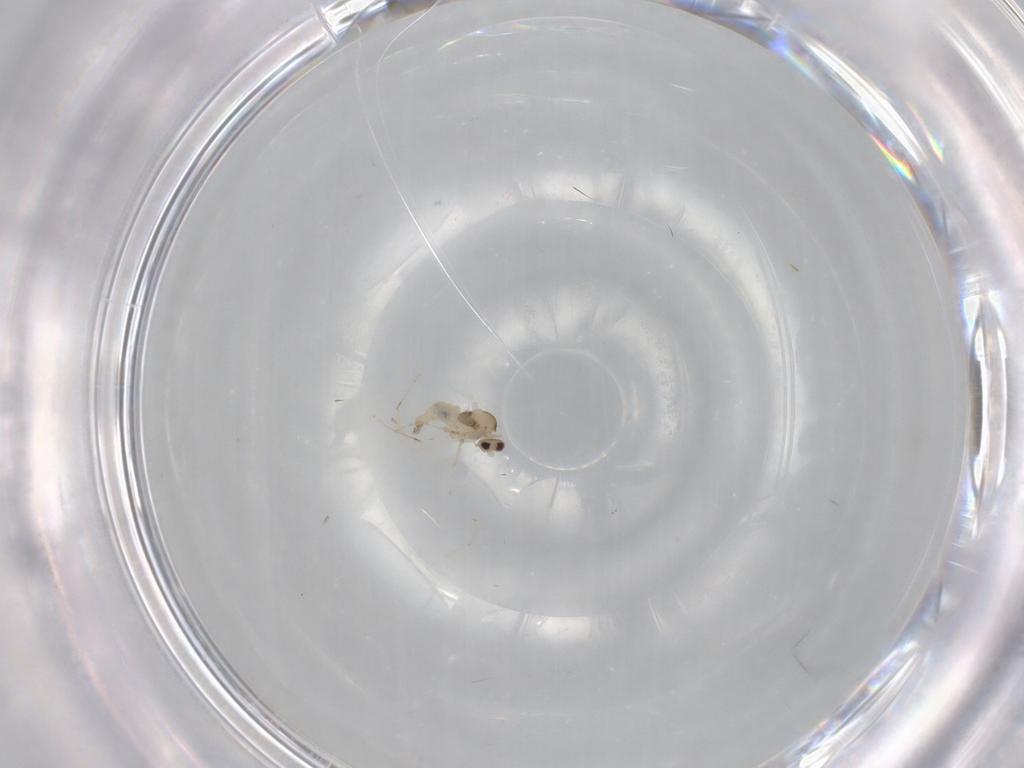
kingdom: Animalia
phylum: Arthropoda
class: Insecta
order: Diptera
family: Cecidomyiidae
